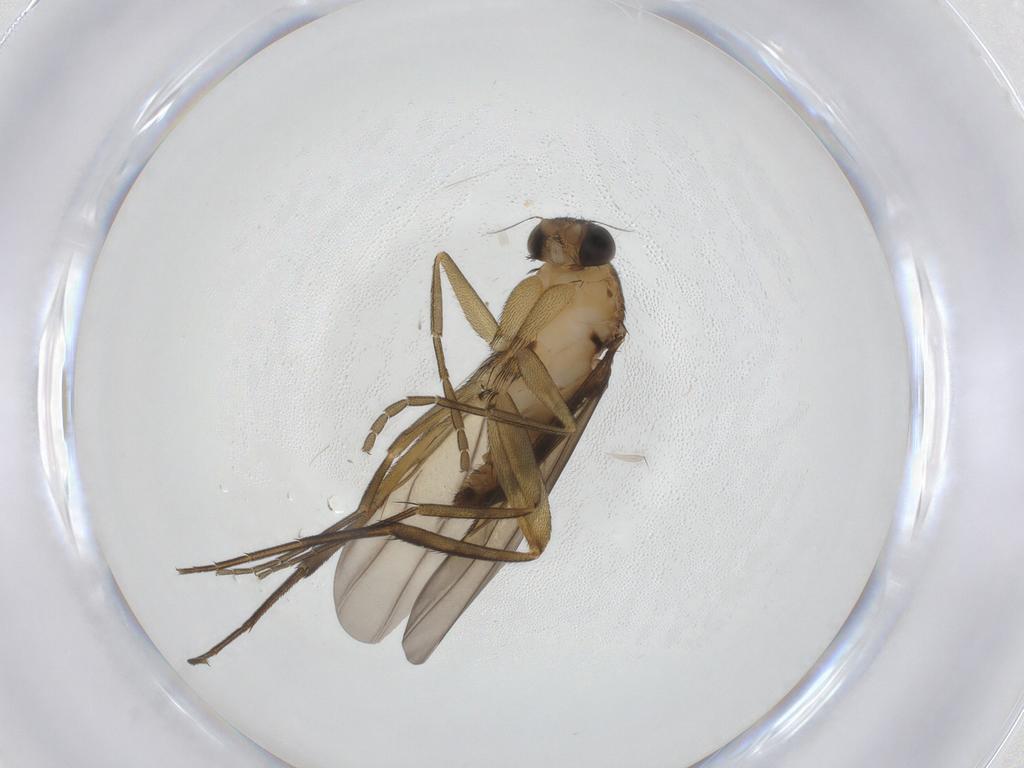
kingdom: Animalia
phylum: Arthropoda
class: Insecta
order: Diptera
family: Phoridae
